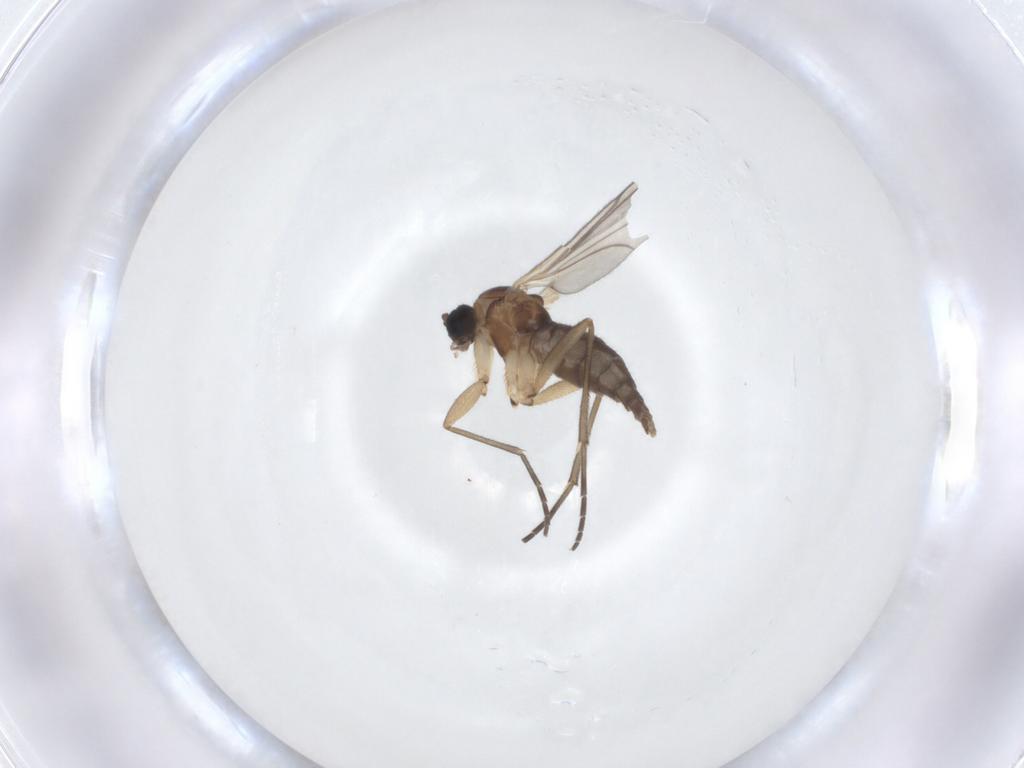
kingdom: Animalia
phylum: Arthropoda
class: Insecta
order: Diptera
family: Sciaridae
